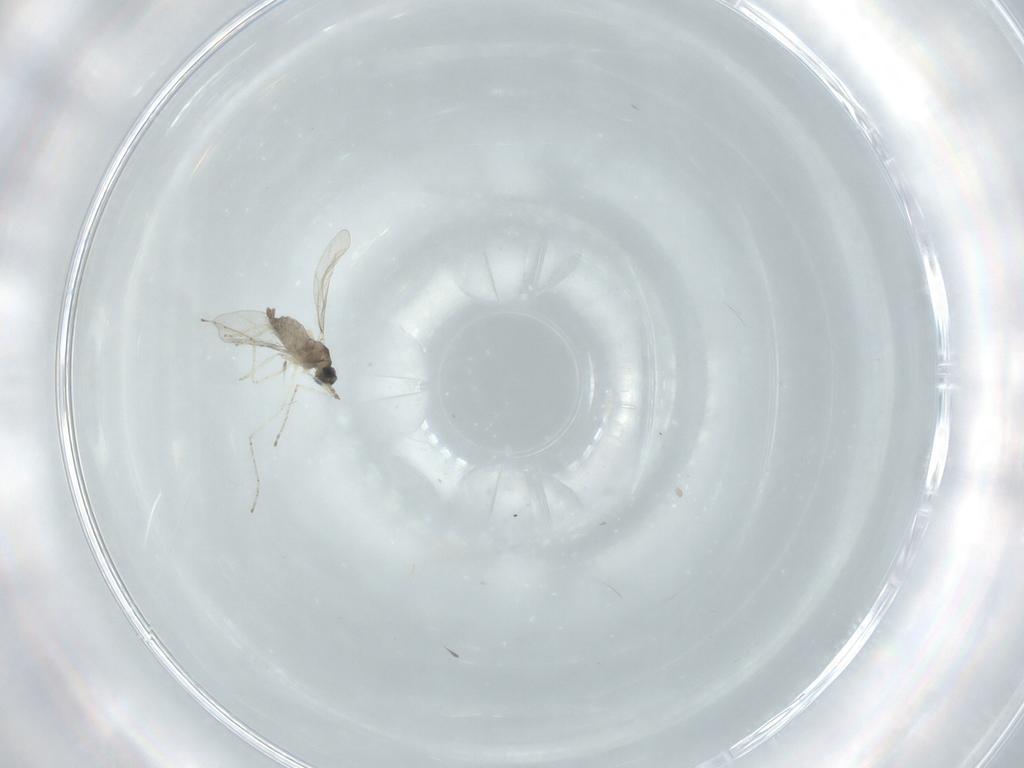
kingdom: Animalia
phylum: Arthropoda
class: Insecta
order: Diptera
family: Cecidomyiidae
